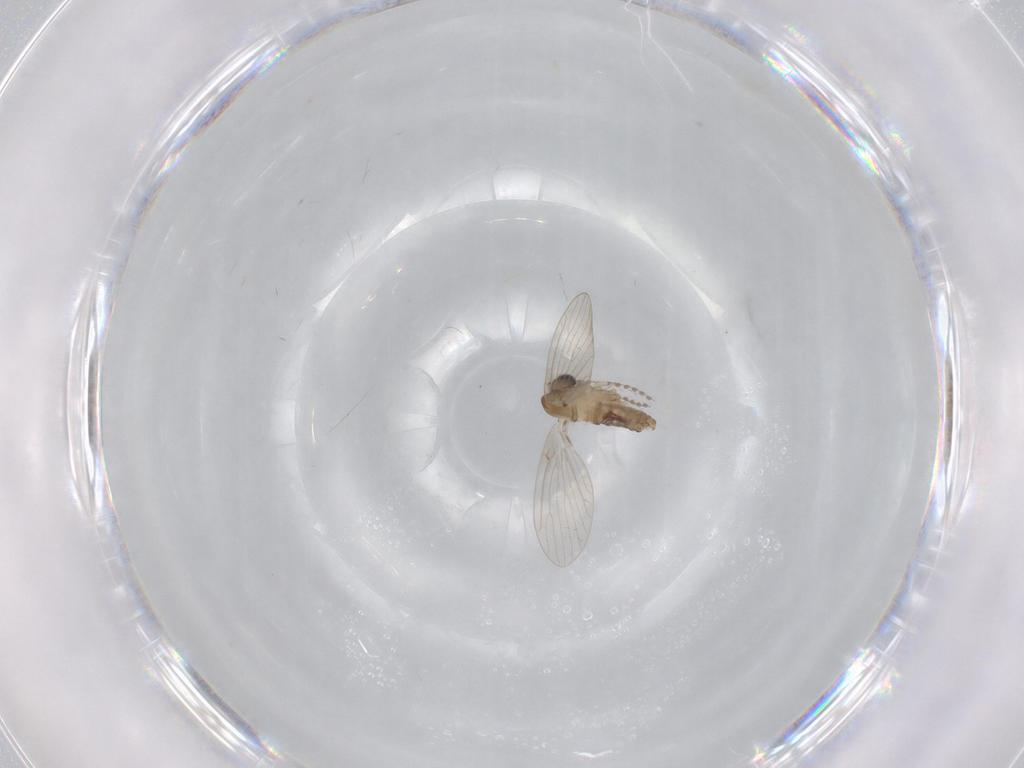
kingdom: Animalia
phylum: Arthropoda
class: Insecta
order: Diptera
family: Psychodidae
